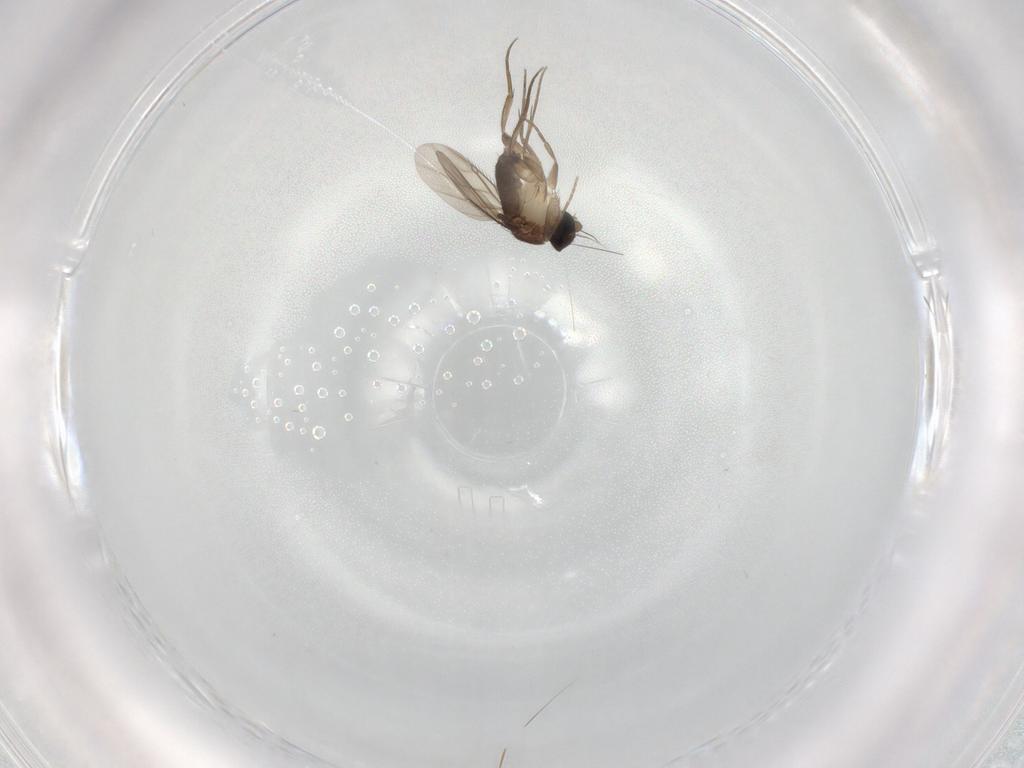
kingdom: Animalia
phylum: Arthropoda
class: Insecta
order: Diptera
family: Phoridae
